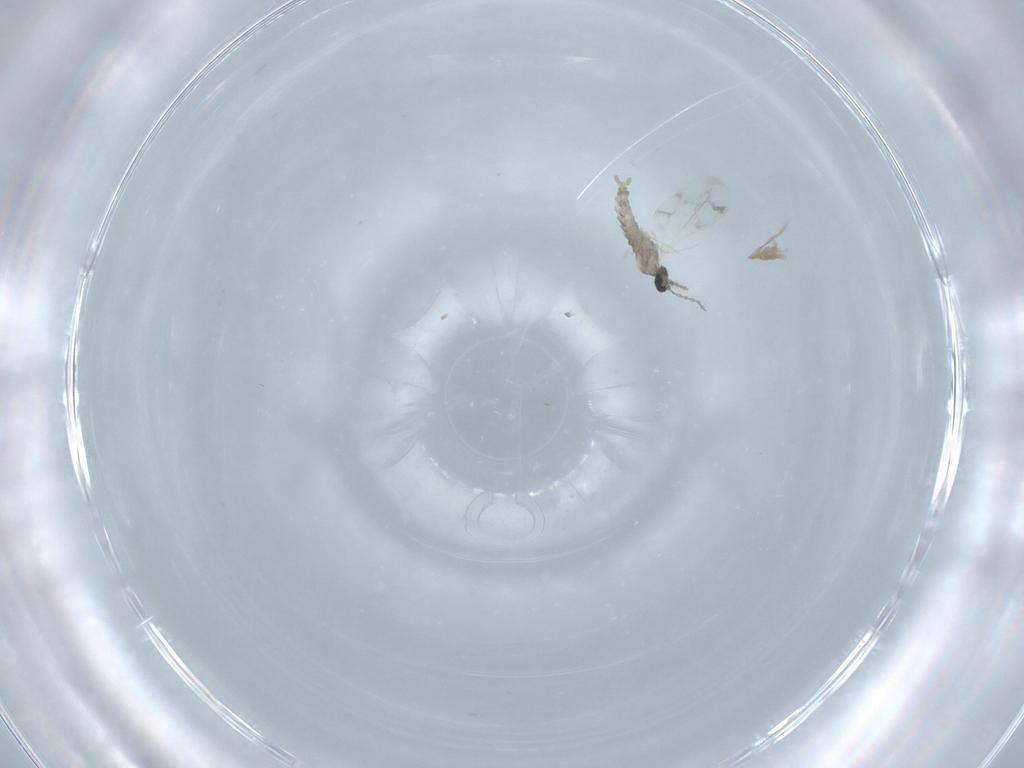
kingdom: Animalia
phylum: Arthropoda
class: Insecta
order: Diptera
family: Cecidomyiidae
